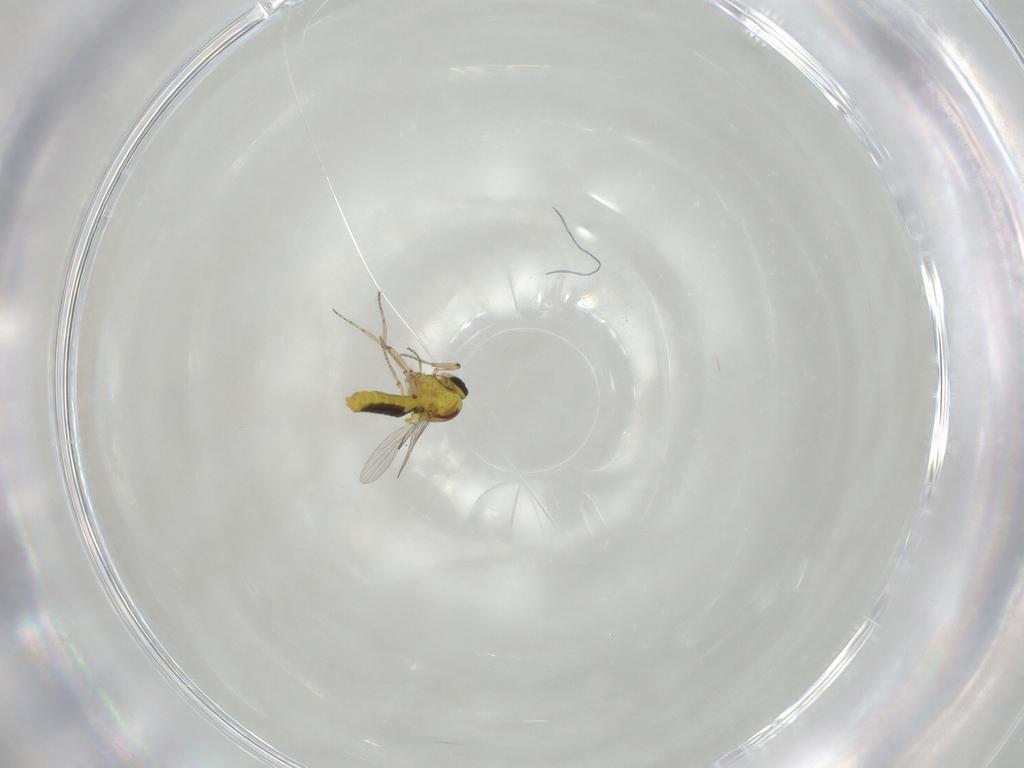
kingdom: Animalia
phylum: Arthropoda
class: Insecta
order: Diptera
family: Ceratopogonidae
